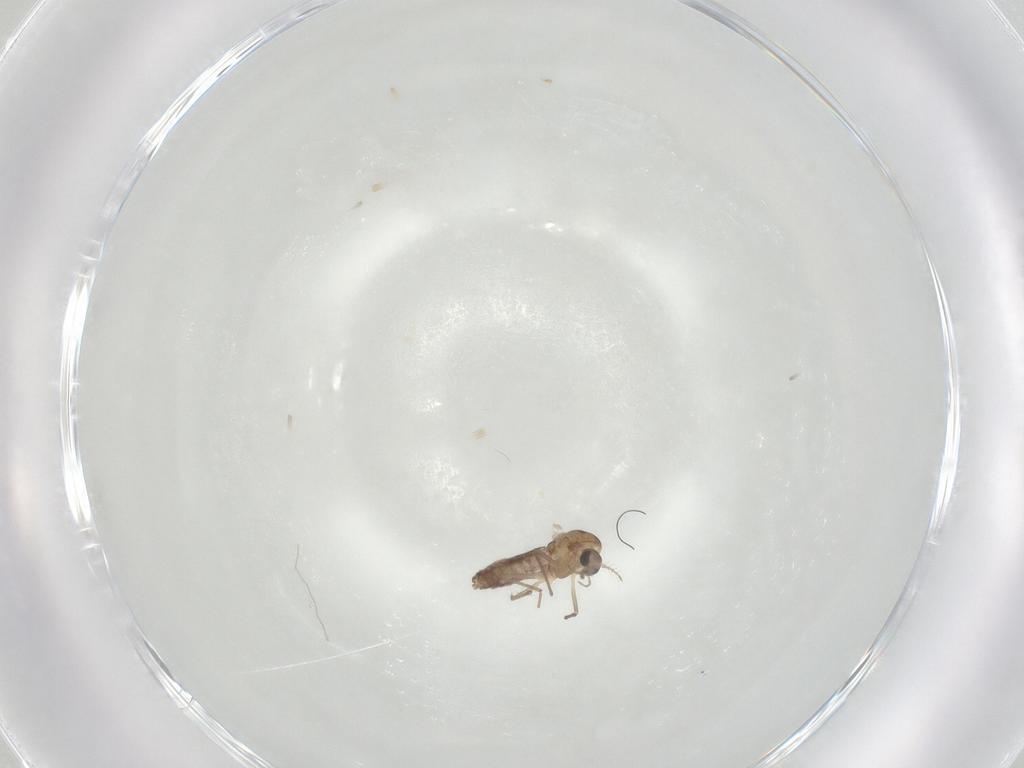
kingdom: Animalia
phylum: Arthropoda
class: Insecta
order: Diptera
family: Chironomidae
